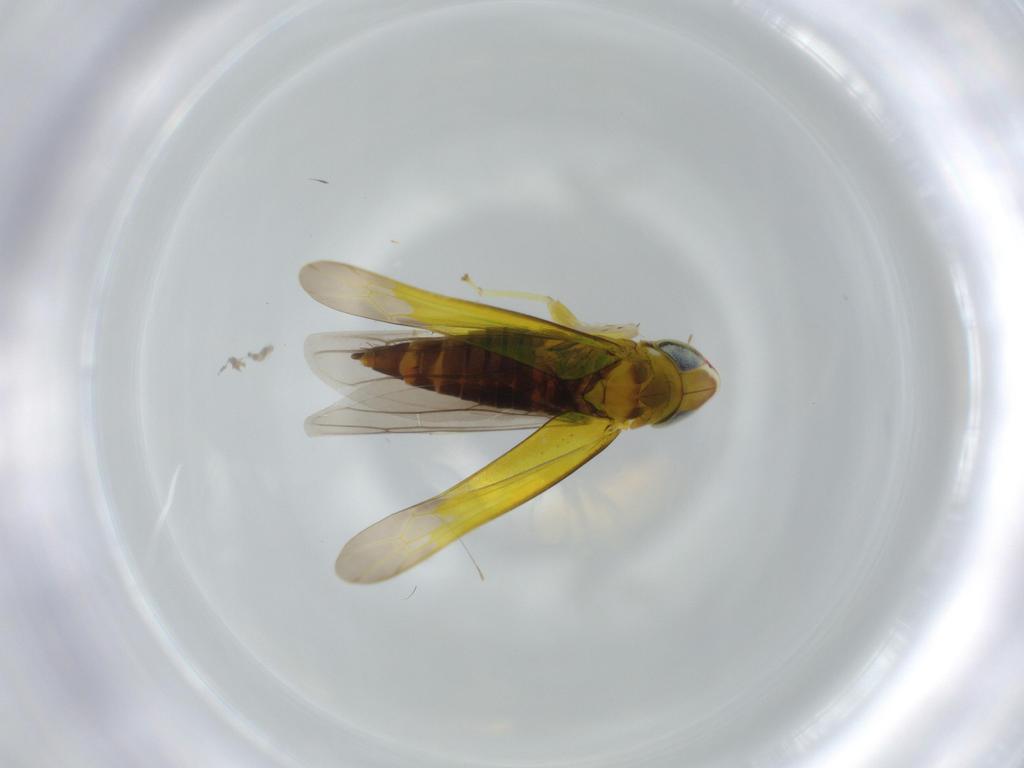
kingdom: Animalia
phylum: Arthropoda
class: Insecta
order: Hemiptera
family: Cicadellidae
